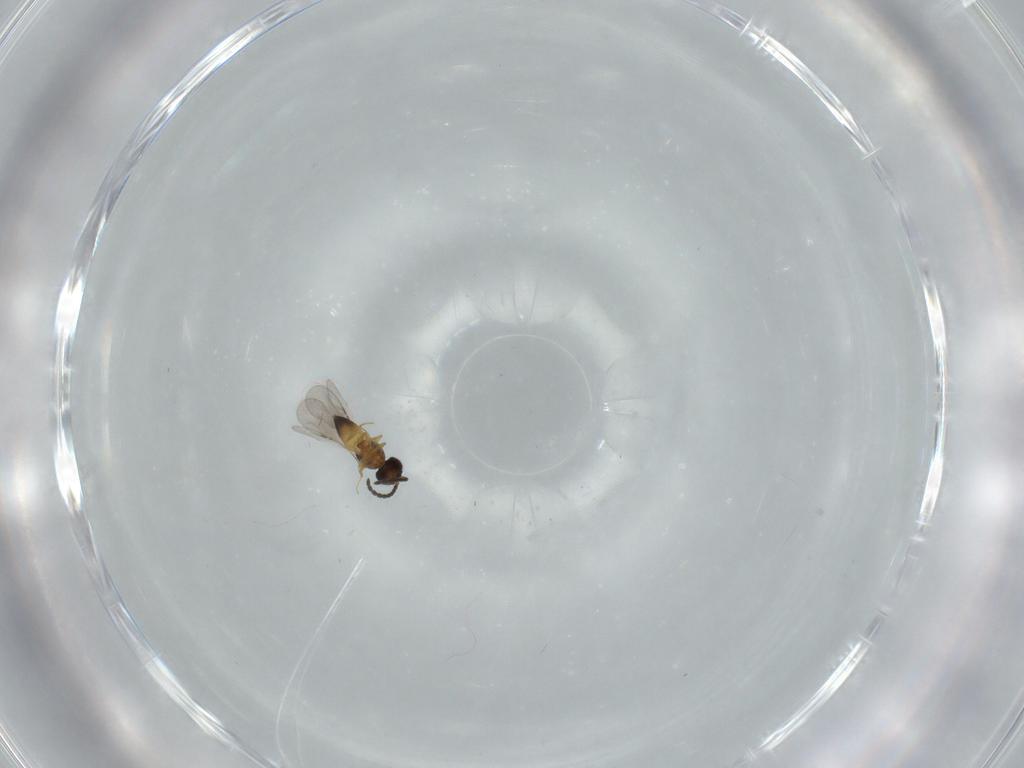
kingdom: Animalia
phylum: Arthropoda
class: Insecta
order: Hymenoptera
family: Ceraphronidae
